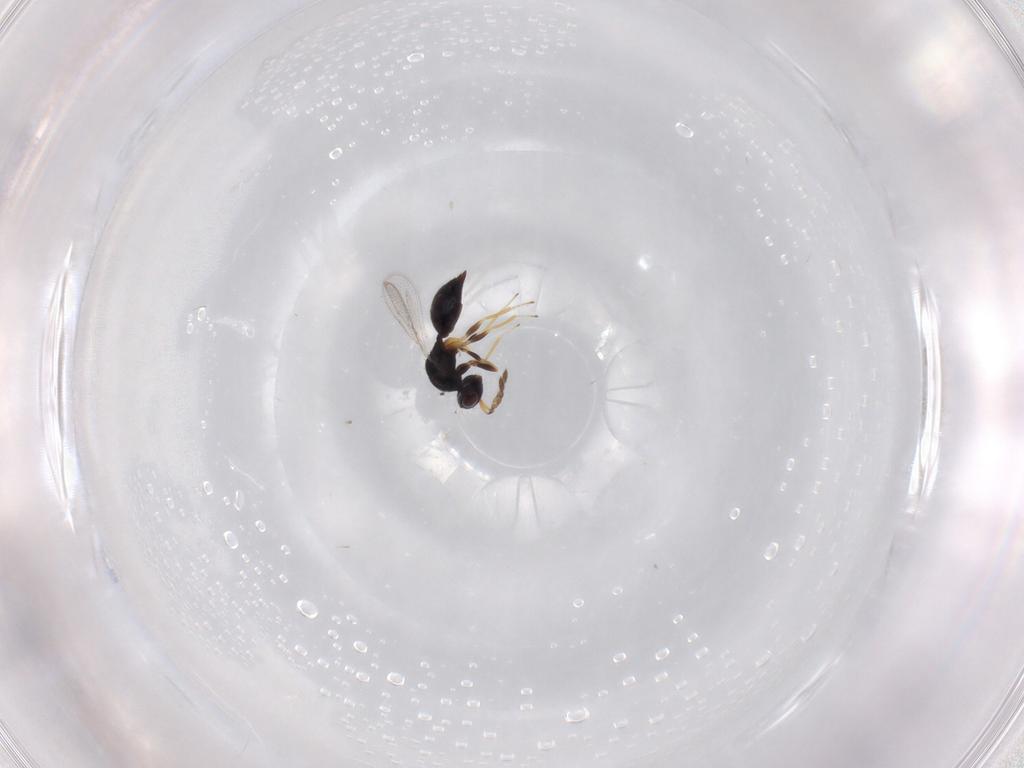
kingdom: Animalia
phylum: Arthropoda
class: Insecta
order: Hymenoptera
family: Eulophidae
